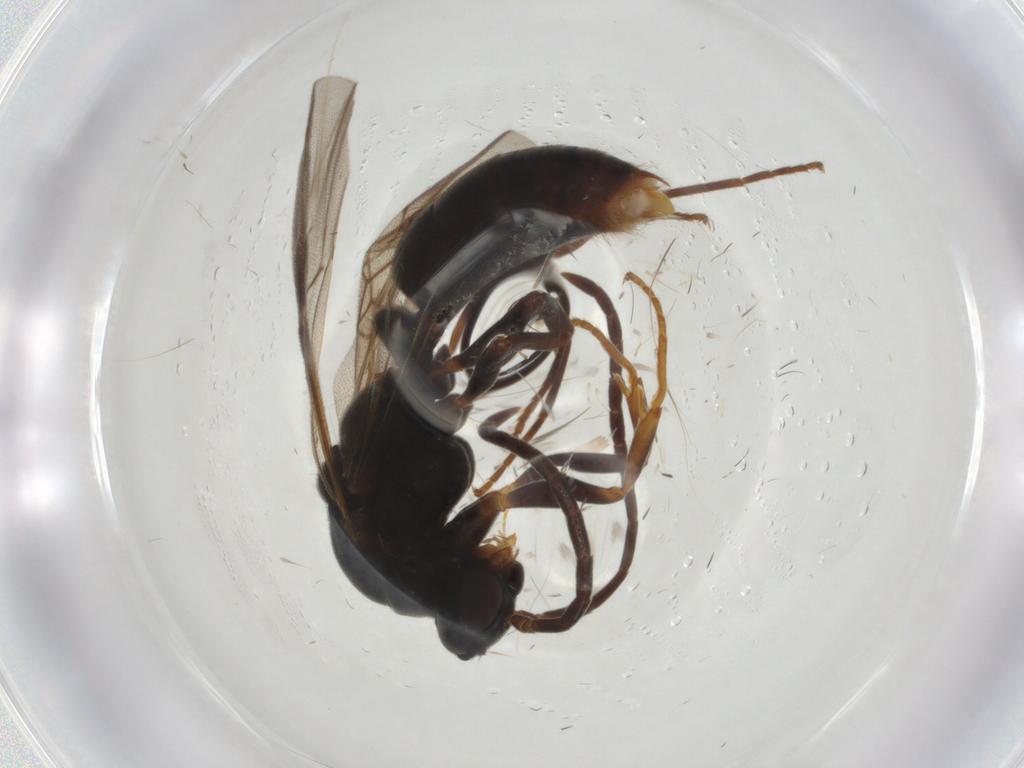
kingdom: Animalia
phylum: Arthropoda
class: Insecta
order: Hymenoptera
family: Formicidae
